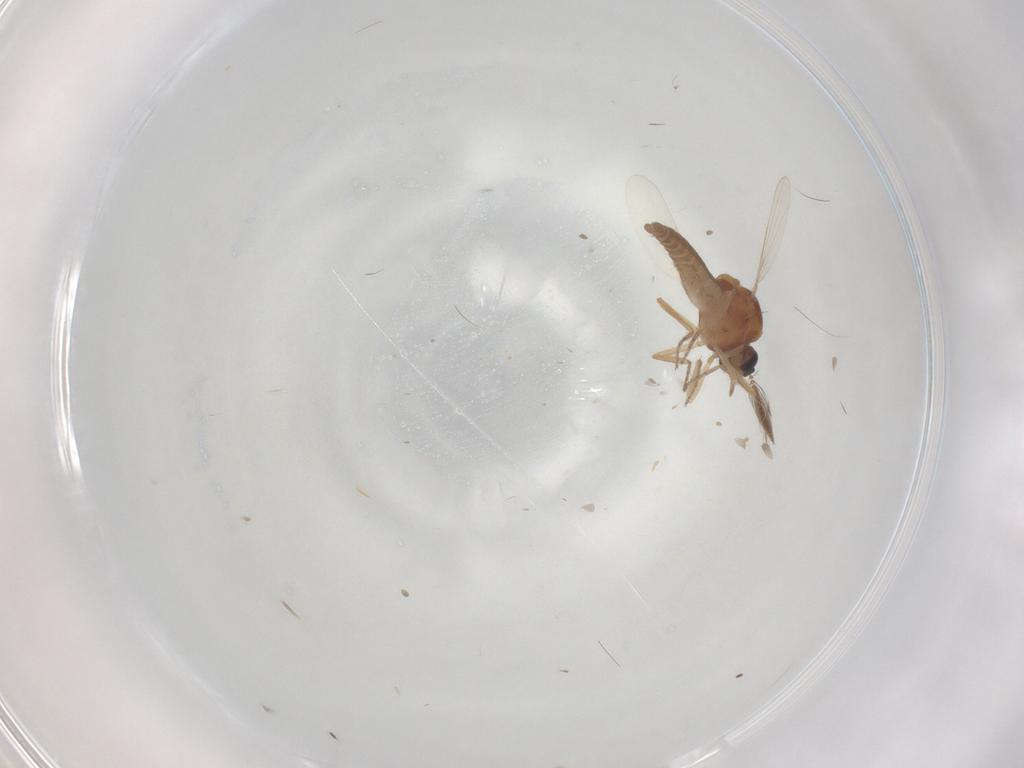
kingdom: Animalia
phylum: Arthropoda
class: Insecta
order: Diptera
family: Ceratopogonidae
